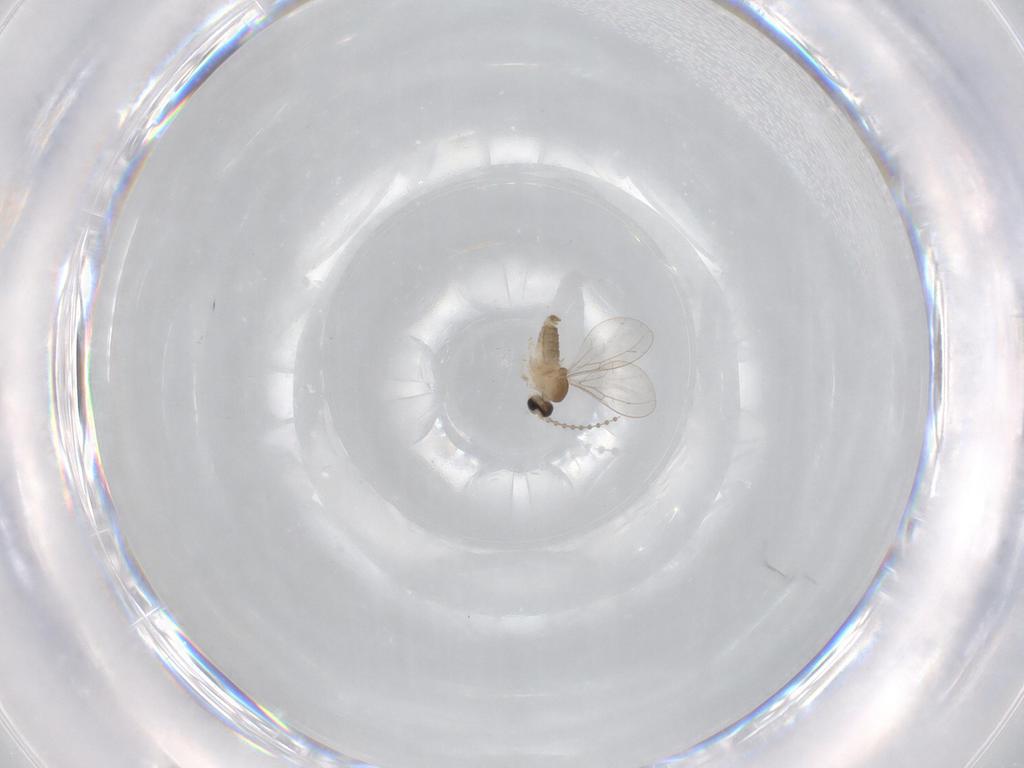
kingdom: Animalia
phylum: Arthropoda
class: Insecta
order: Diptera
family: Cecidomyiidae
